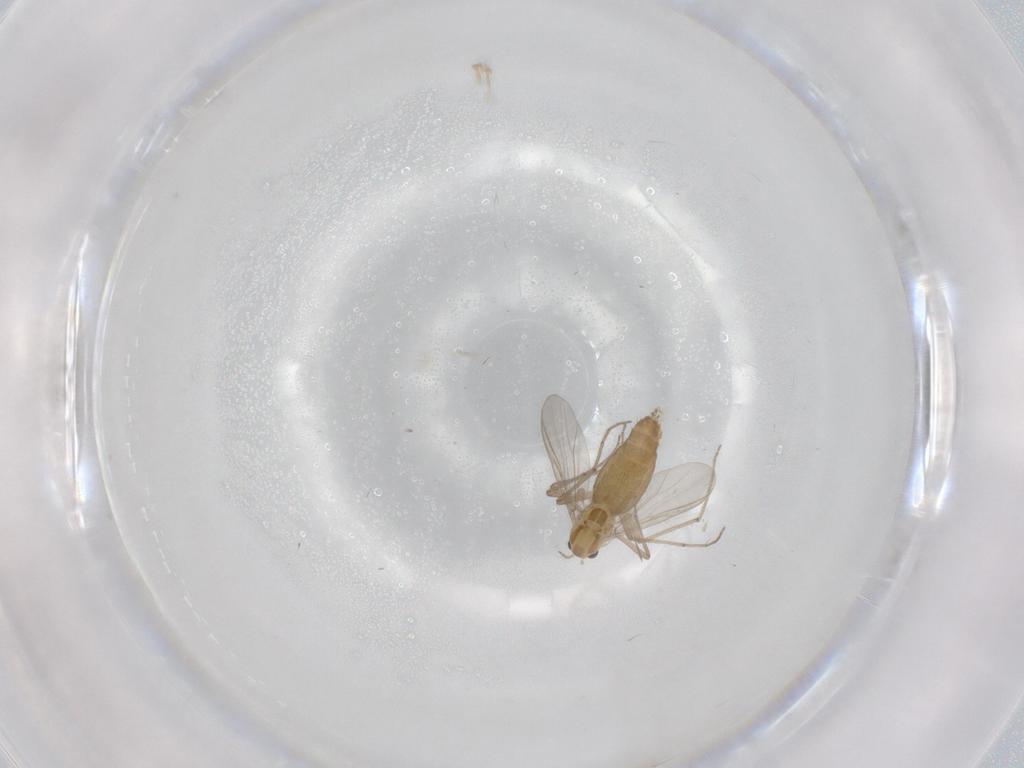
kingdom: Animalia
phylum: Arthropoda
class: Insecta
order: Diptera
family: Chironomidae
